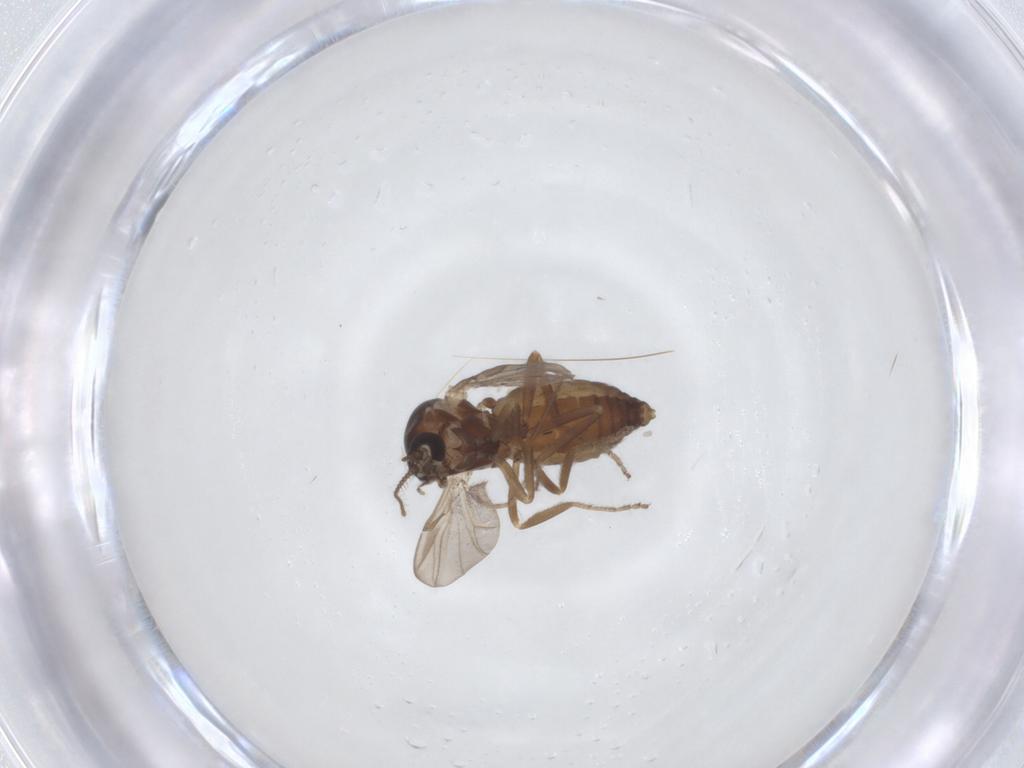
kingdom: Animalia
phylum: Arthropoda
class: Insecta
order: Diptera
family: Ceratopogonidae
